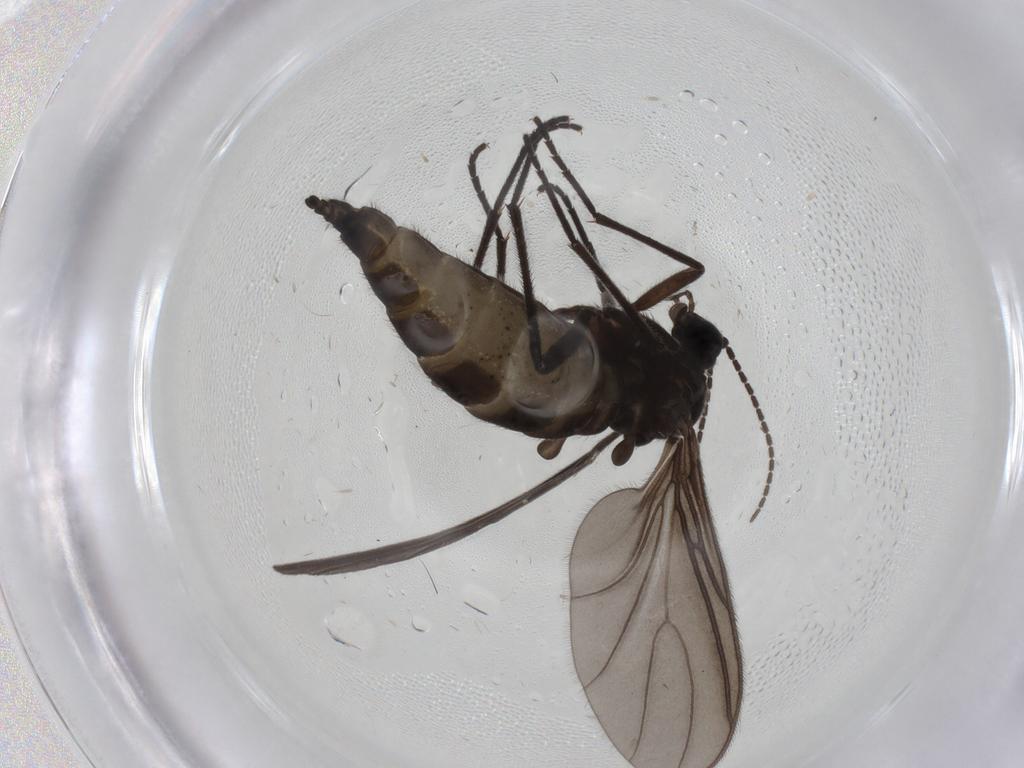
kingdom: Animalia
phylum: Arthropoda
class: Insecta
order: Diptera
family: Sciaridae
